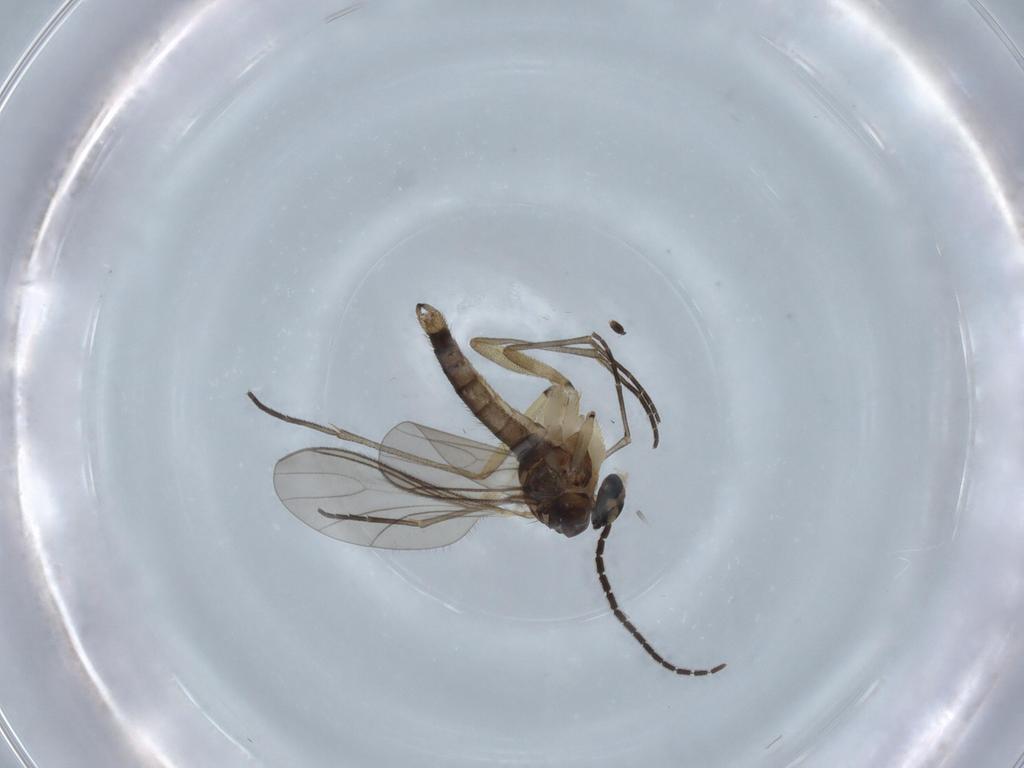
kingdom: Animalia
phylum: Arthropoda
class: Insecta
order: Diptera
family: Sciaridae
